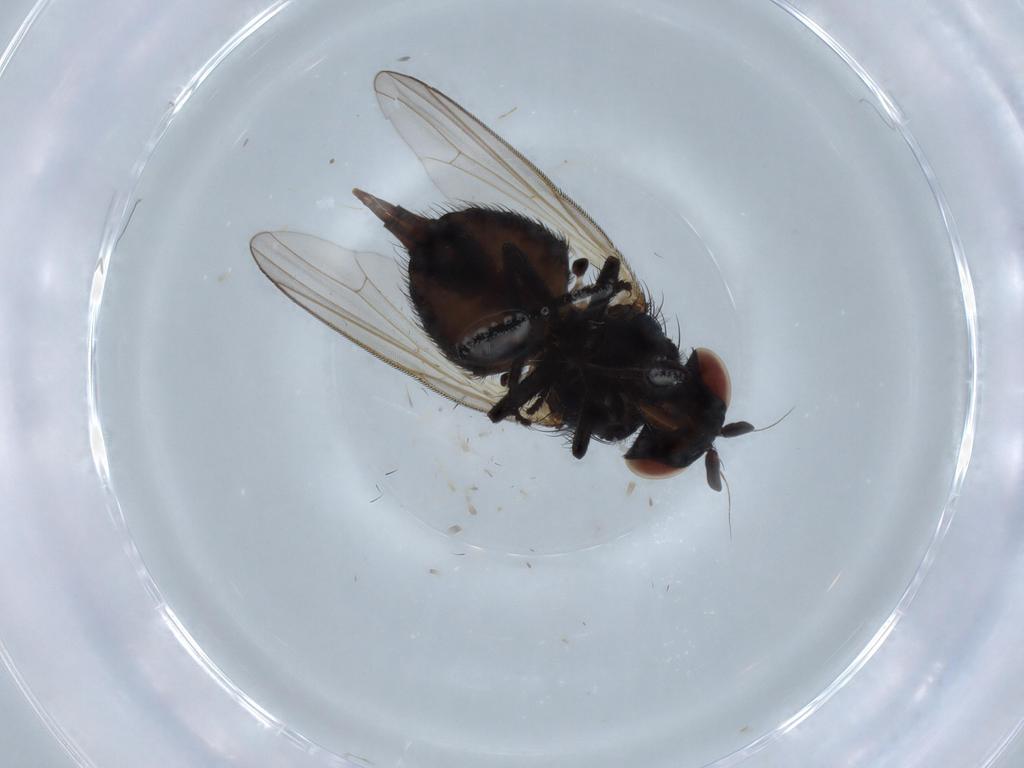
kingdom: Animalia
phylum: Arthropoda
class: Insecta
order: Diptera
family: Lonchaeidae
